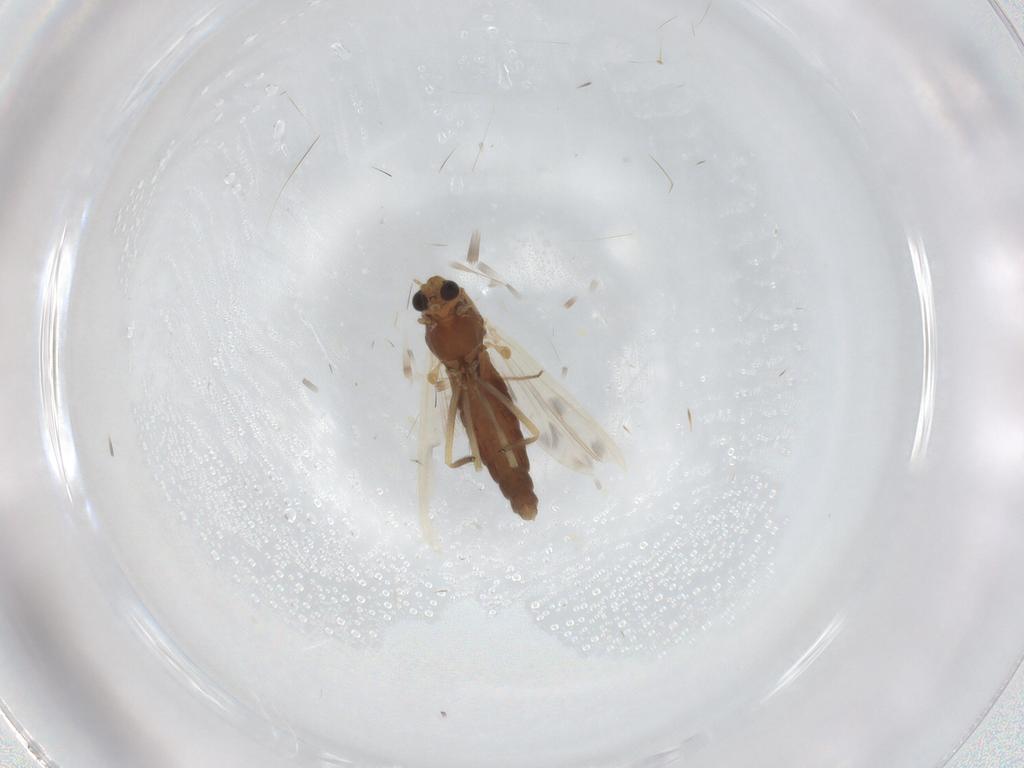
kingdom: Animalia
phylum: Arthropoda
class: Insecta
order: Diptera
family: Chironomidae
